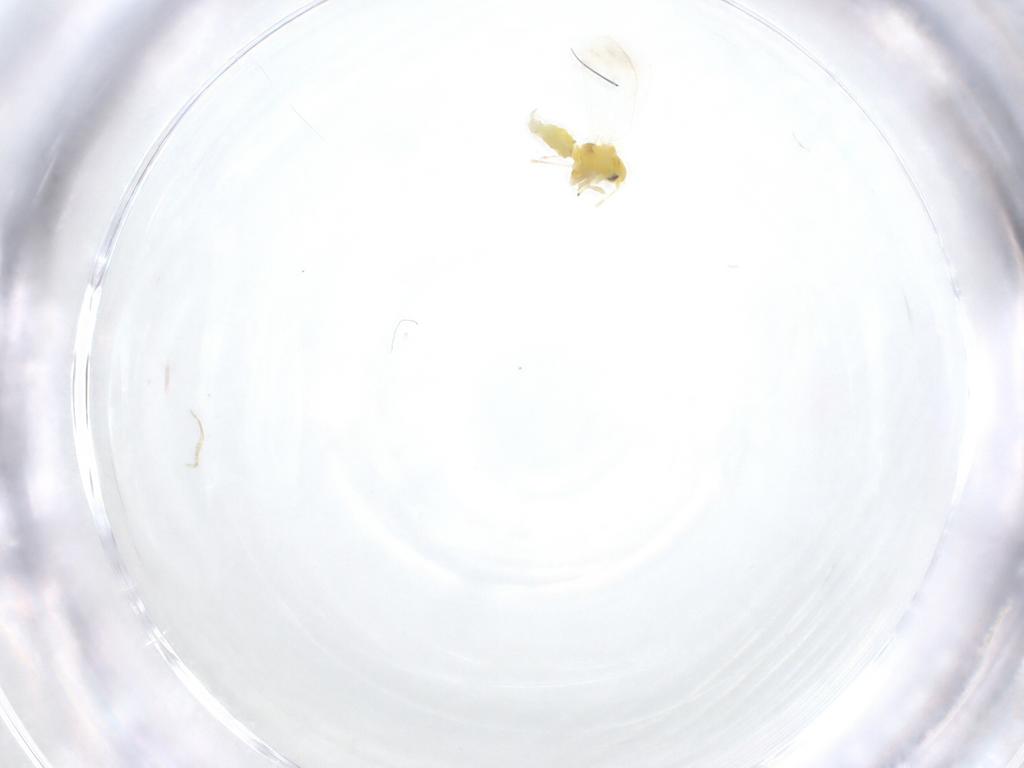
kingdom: Animalia
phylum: Arthropoda
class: Insecta
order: Hemiptera
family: Aleyrodidae
